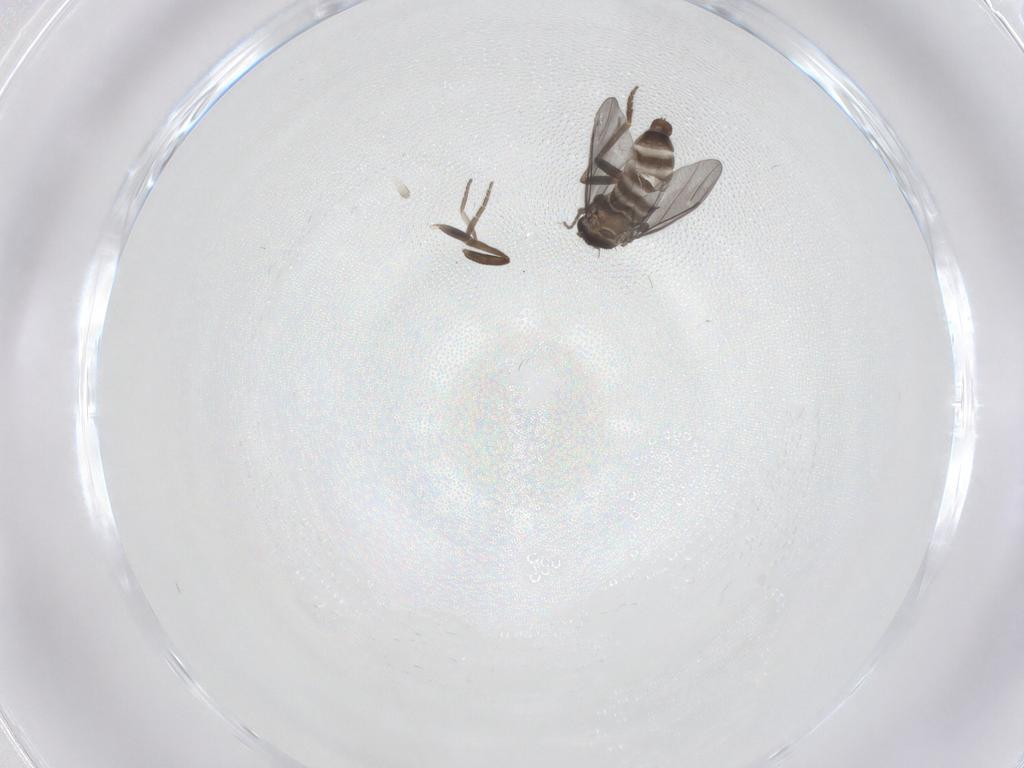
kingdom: Animalia
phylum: Arthropoda
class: Insecta
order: Diptera
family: Phoridae
